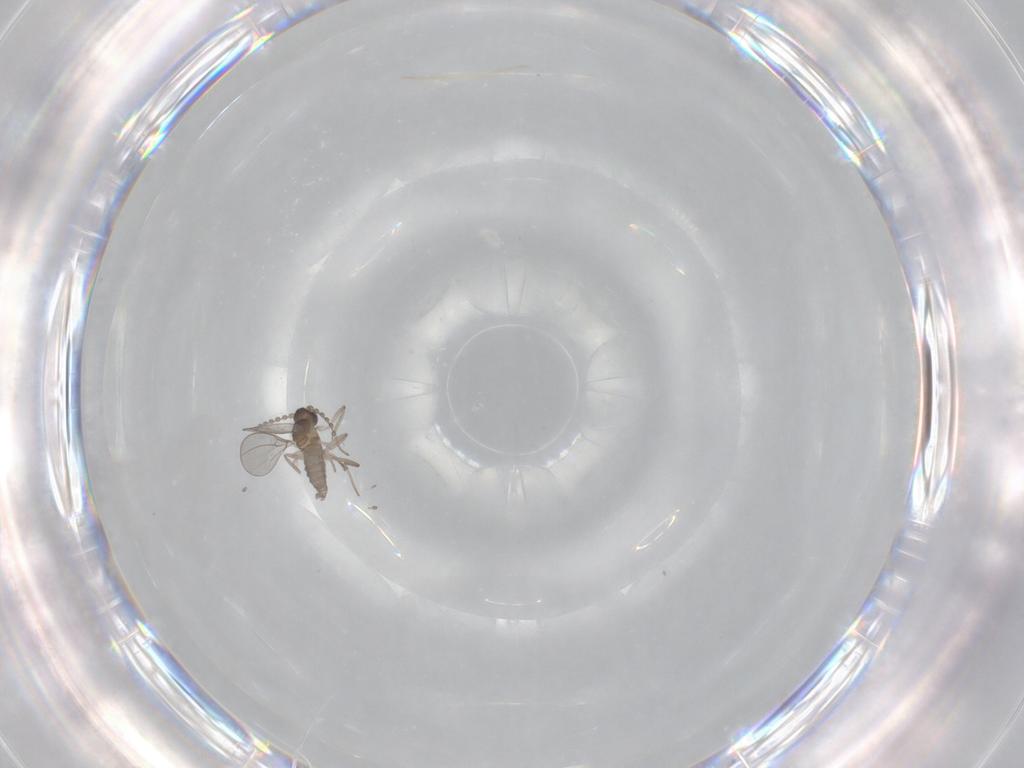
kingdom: Animalia
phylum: Arthropoda
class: Insecta
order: Diptera
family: Cecidomyiidae
